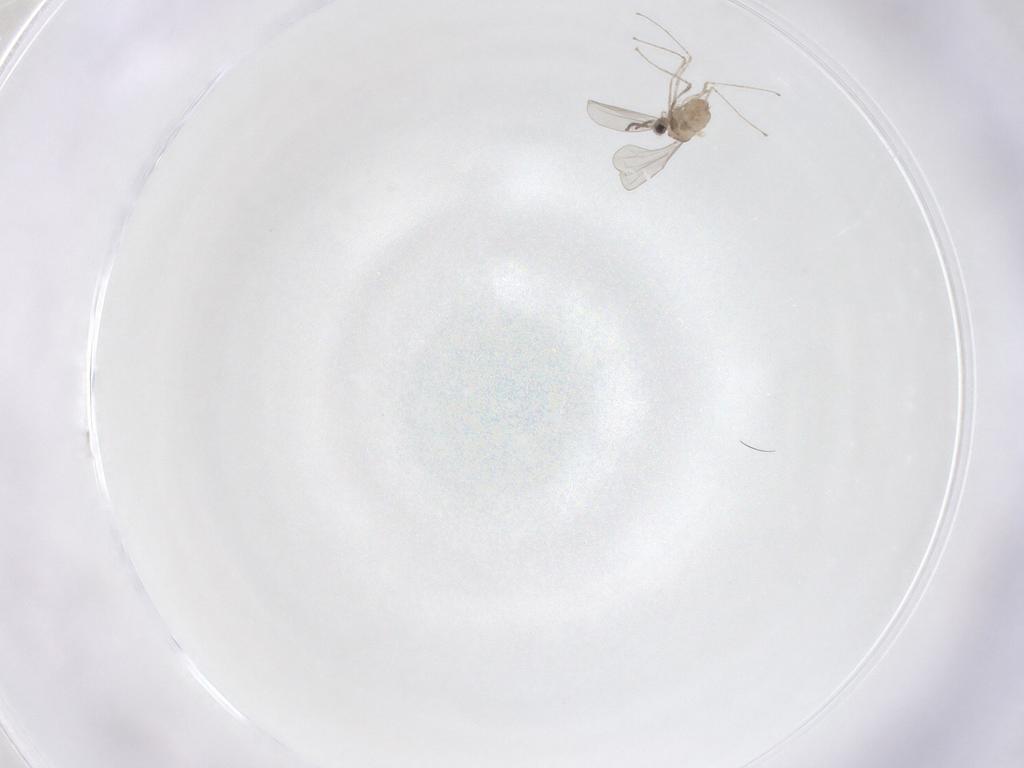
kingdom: Animalia
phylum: Arthropoda
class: Insecta
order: Diptera
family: Cecidomyiidae
